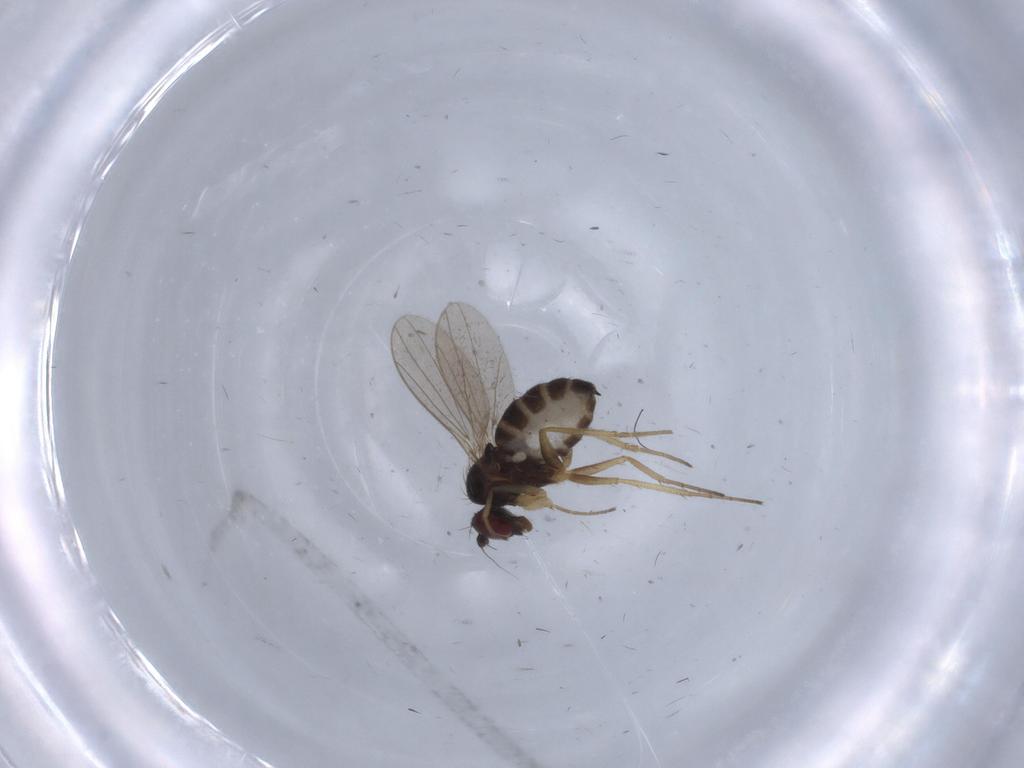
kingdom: Animalia
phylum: Arthropoda
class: Insecta
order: Diptera
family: Dolichopodidae
